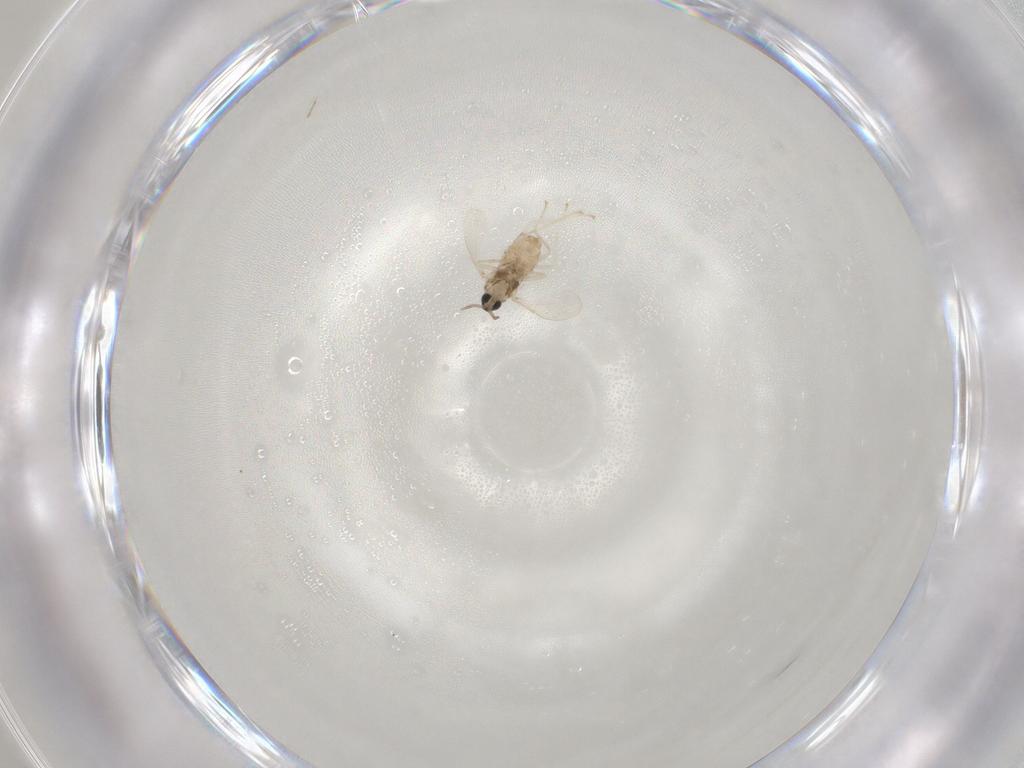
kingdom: Animalia
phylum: Arthropoda
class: Insecta
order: Diptera
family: Cecidomyiidae
